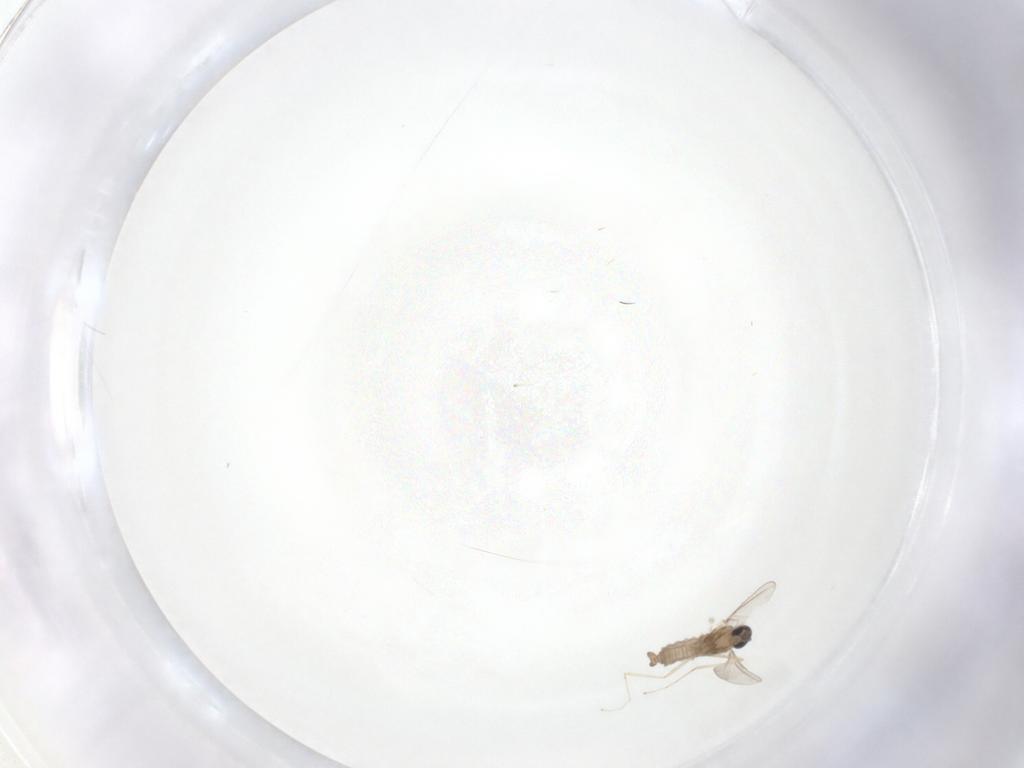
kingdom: Animalia
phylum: Arthropoda
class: Insecta
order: Diptera
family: Cecidomyiidae
